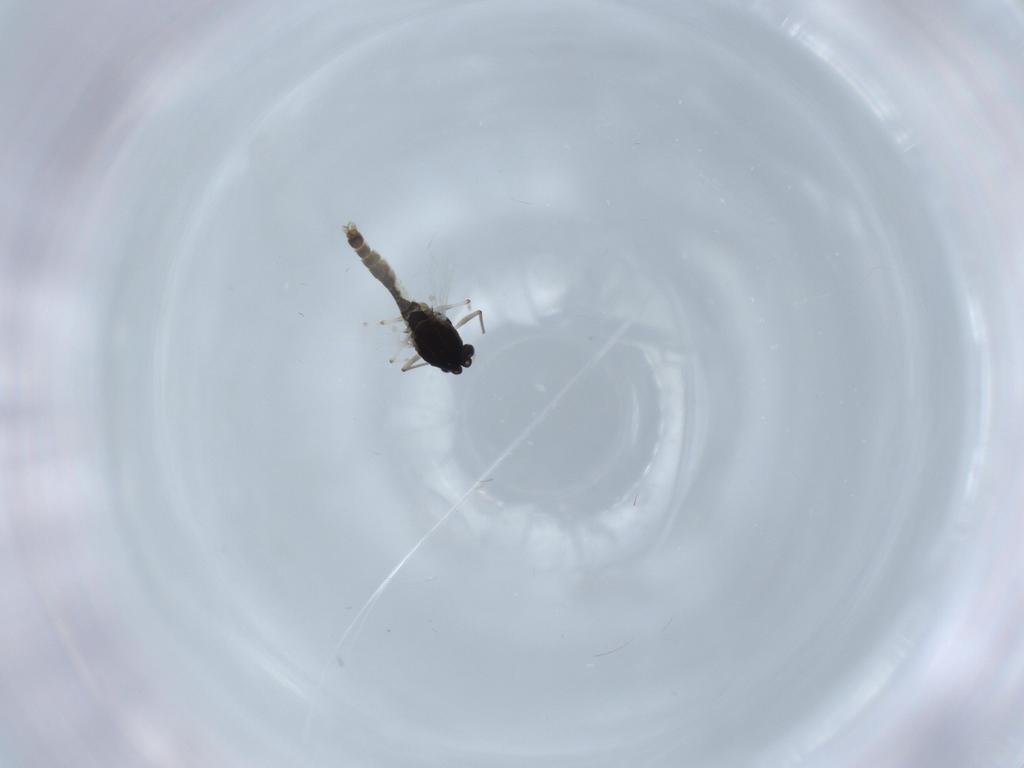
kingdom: Animalia
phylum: Arthropoda
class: Insecta
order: Diptera
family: Chironomidae
